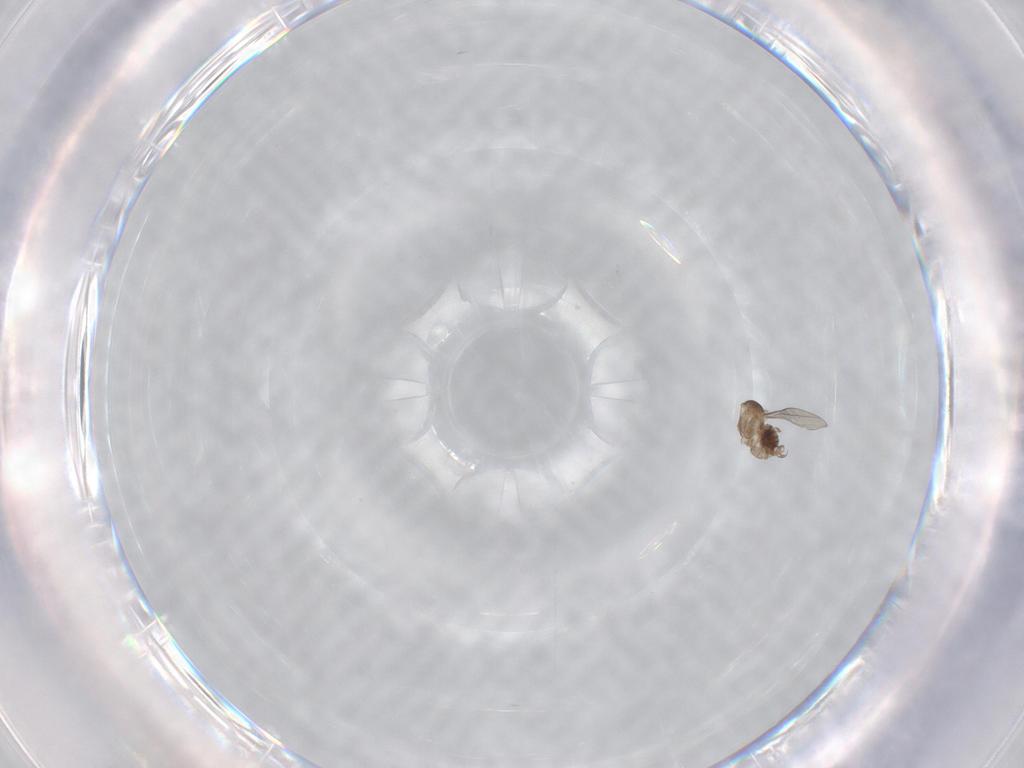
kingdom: Animalia
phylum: Arthropoda
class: Insecta
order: Diptera
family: Cecidomyiidae
